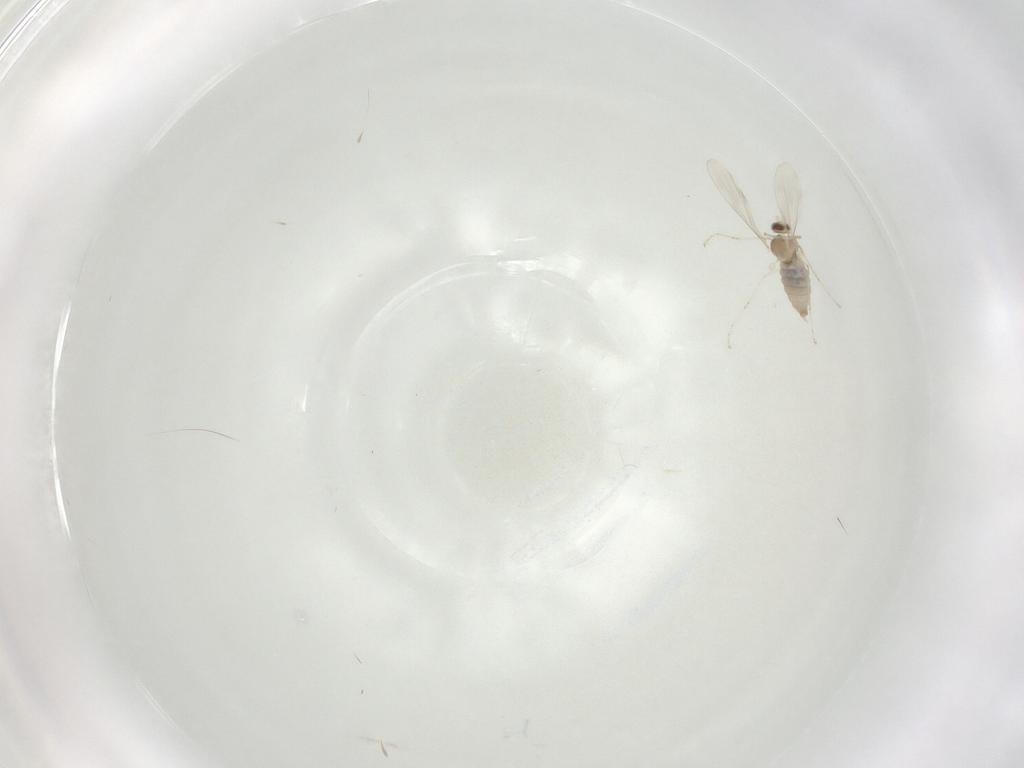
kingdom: Animalia
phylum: Arthropoda
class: Insecta
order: Diptera
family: Cecidomyiidae
